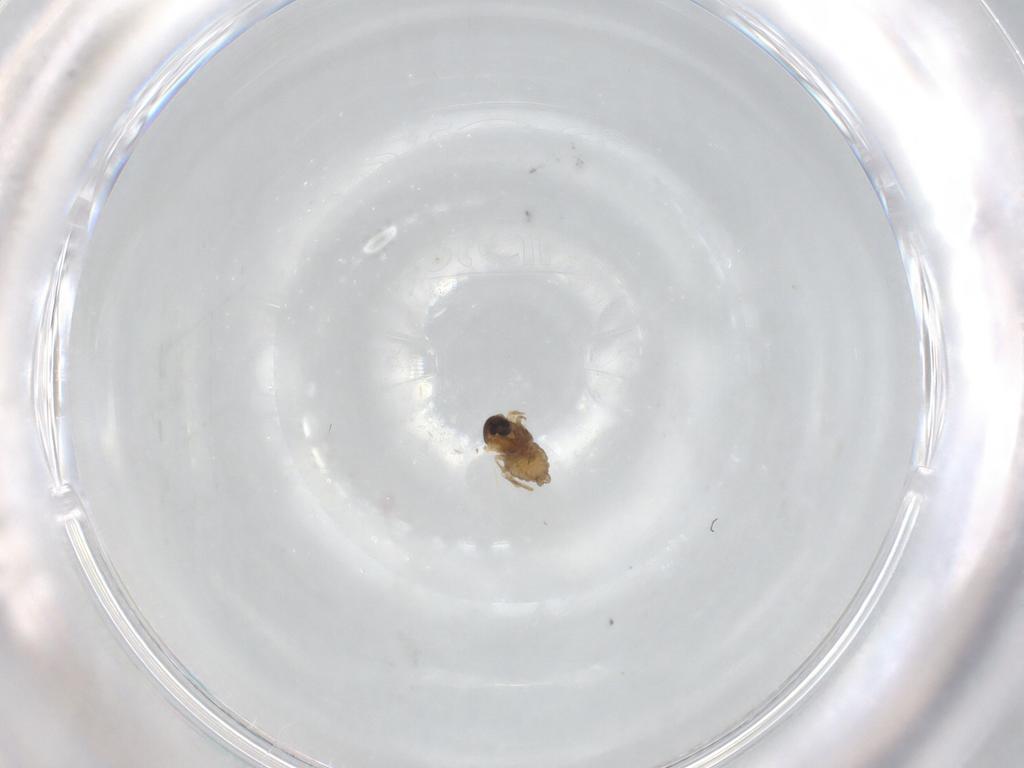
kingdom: Animalia
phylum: Arthropoda
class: Insecta
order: Diptera
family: Cecidomyiidae
